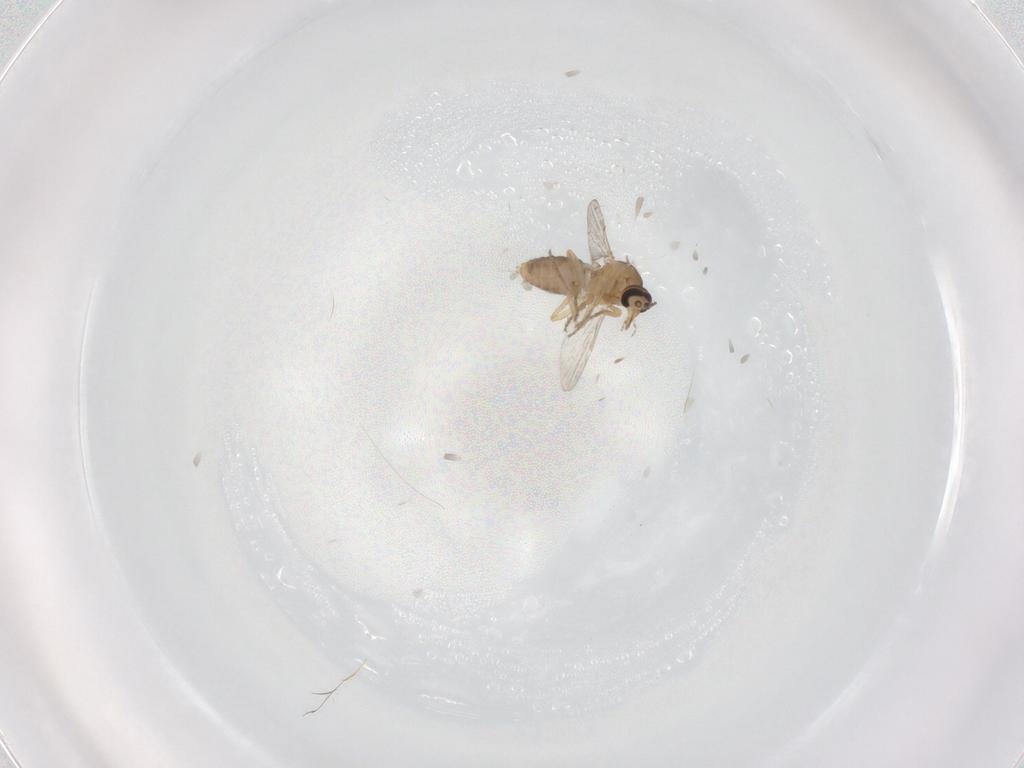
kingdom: Animalia
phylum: Arthropoda
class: Insecta
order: Diptera
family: Ceratopogonidae
